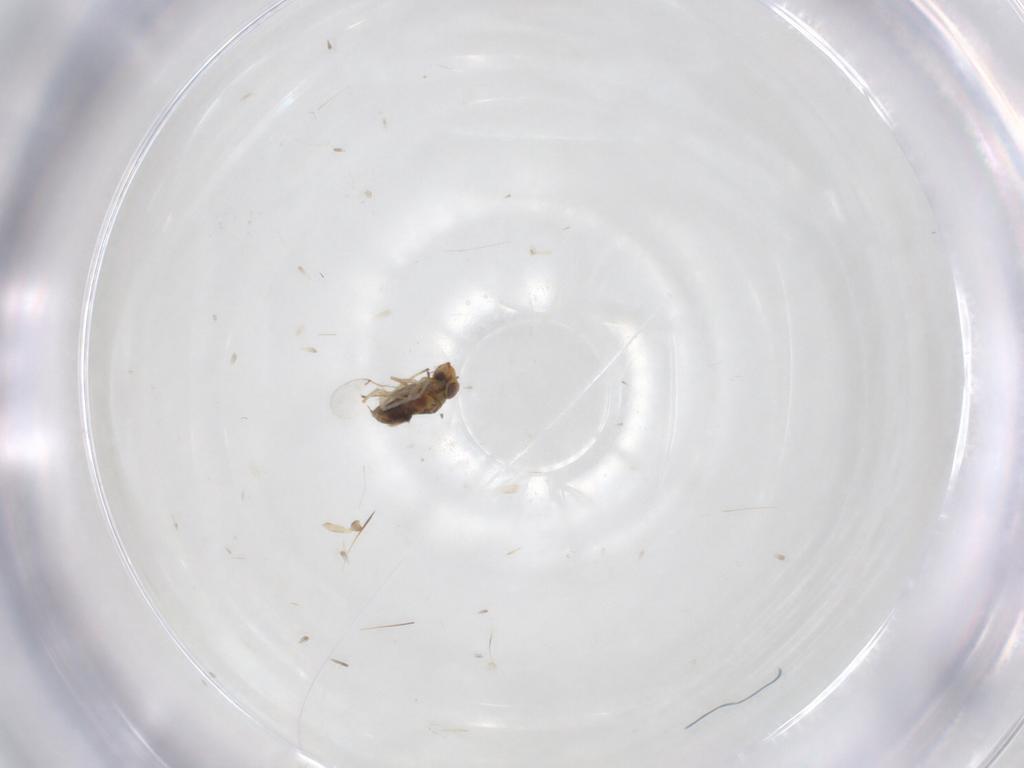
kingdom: Animalia
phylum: Arthropoda
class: Insecta
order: Hymenoptera
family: Encyrtidae
